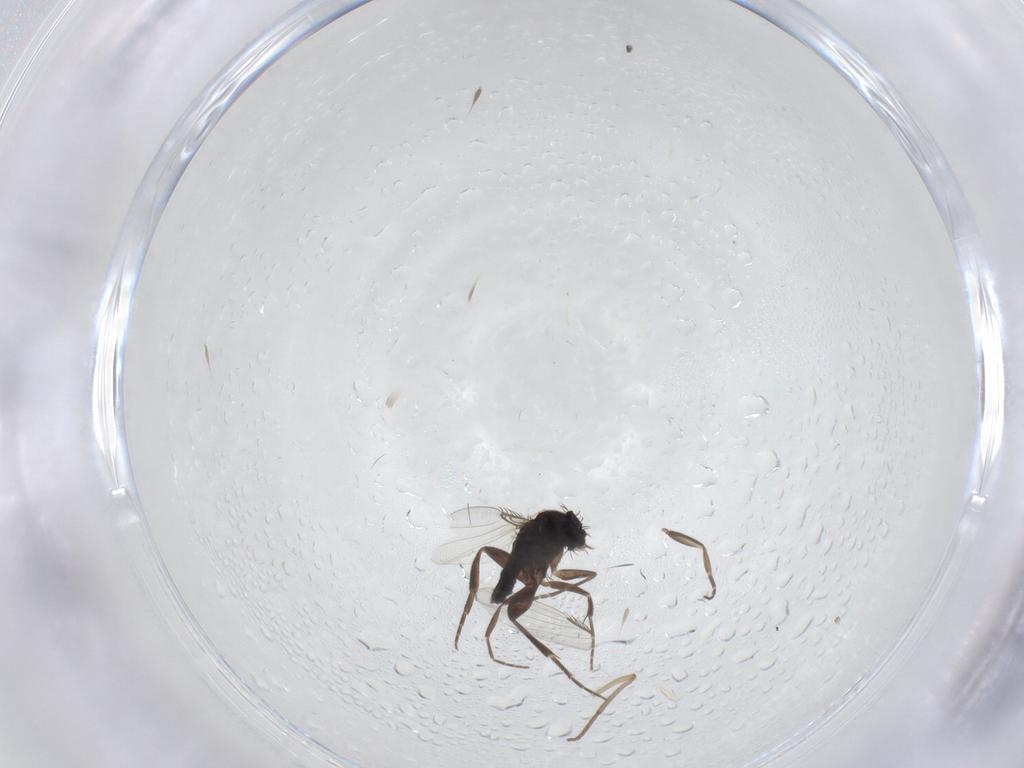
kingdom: Animalia
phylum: Arthropoda
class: Insecta
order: Diptera
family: Phoridae
